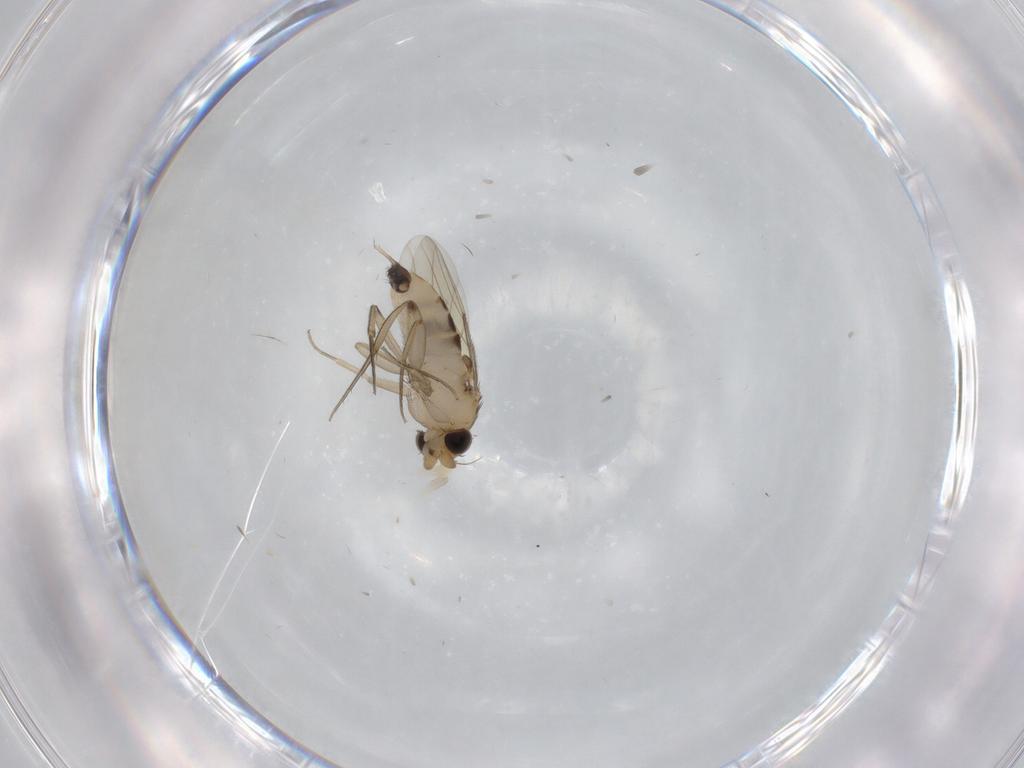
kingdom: Animalia
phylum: Arthropoda
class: Insecta
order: Diptera
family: Phoridae
